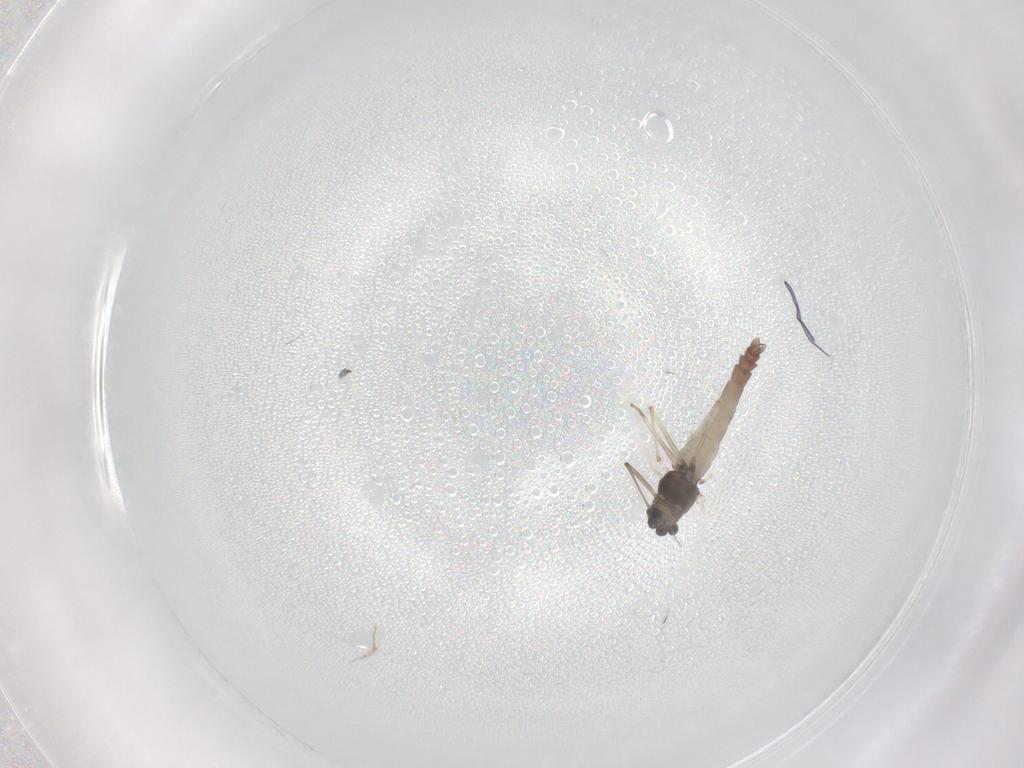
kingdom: Animalia
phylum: Arthropoda
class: Insecta
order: Diptera
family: Chironomidae
